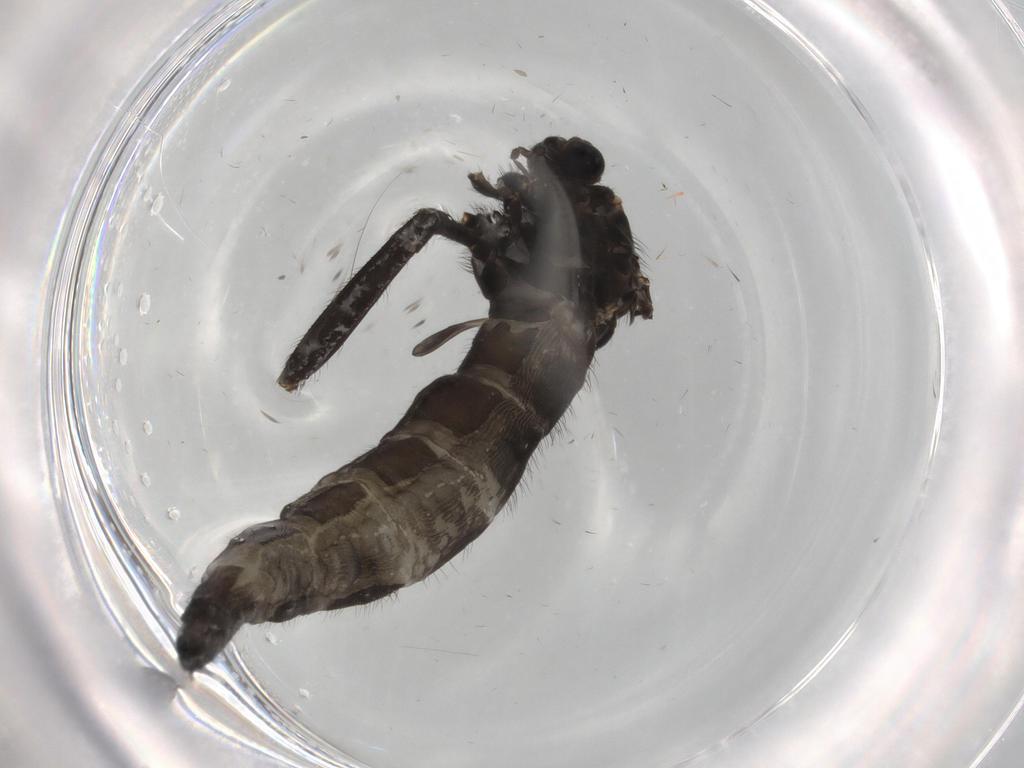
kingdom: Animalia
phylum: Arthropoda
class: Insecta
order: Diptera
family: Sciaridae
